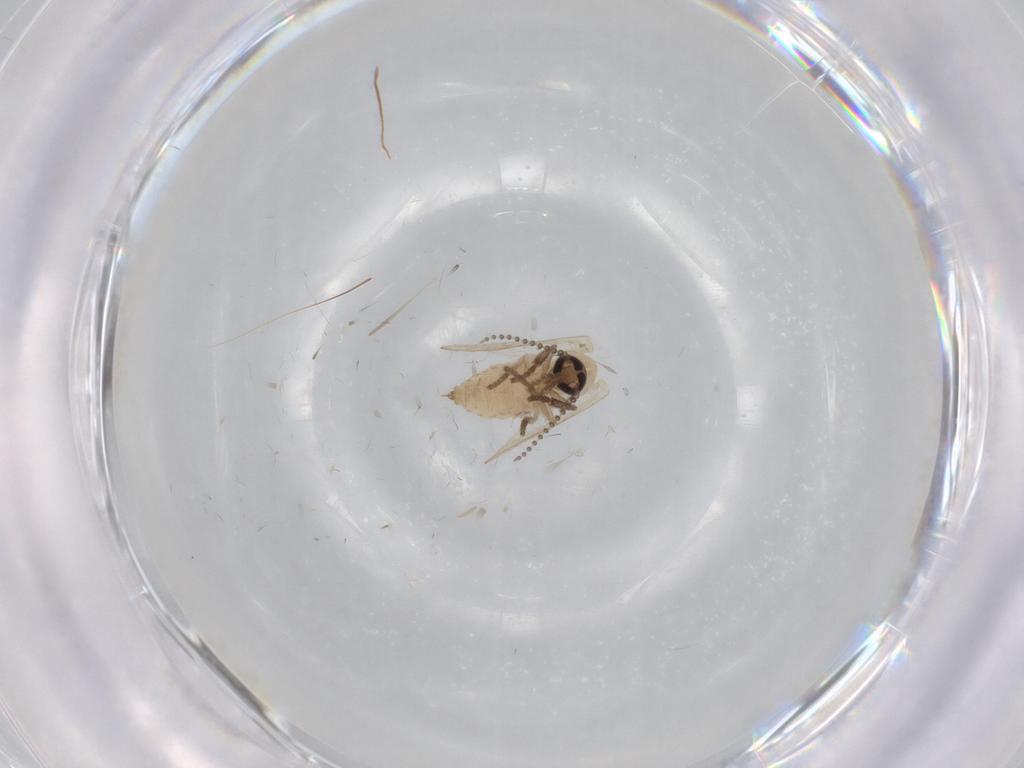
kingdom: Animalia
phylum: Arthropoda
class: Insecta
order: Diptera
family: Psychodidae
